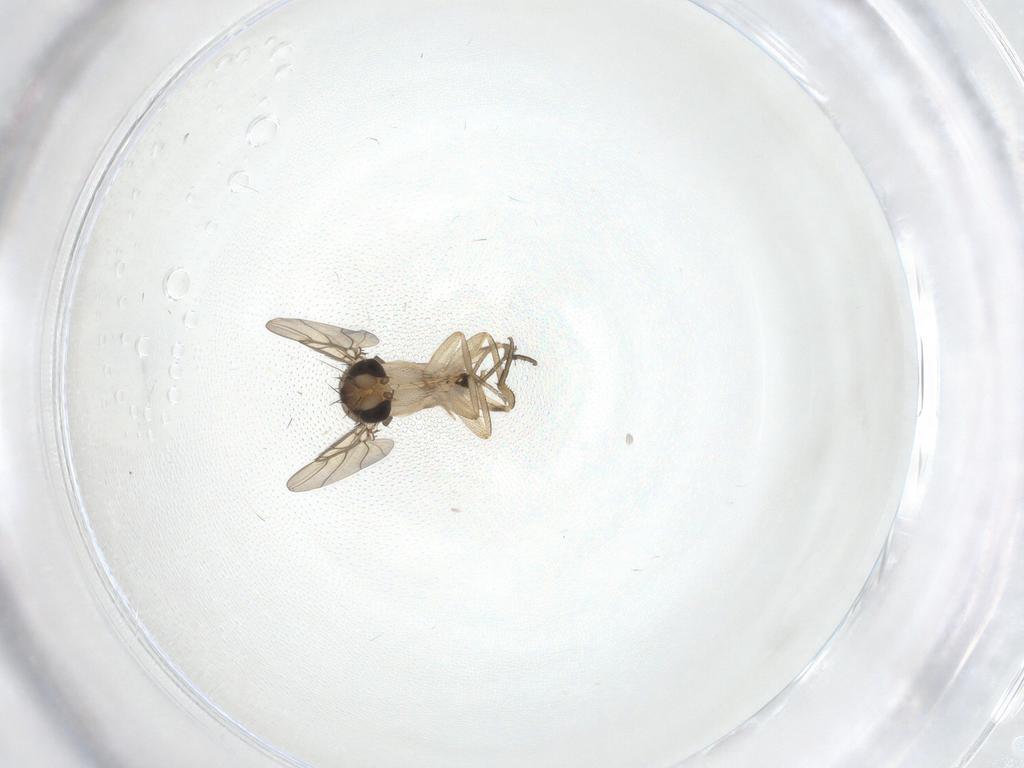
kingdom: Animalia
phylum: Arthropoda
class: Insecta
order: Diptera
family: Phoridae
